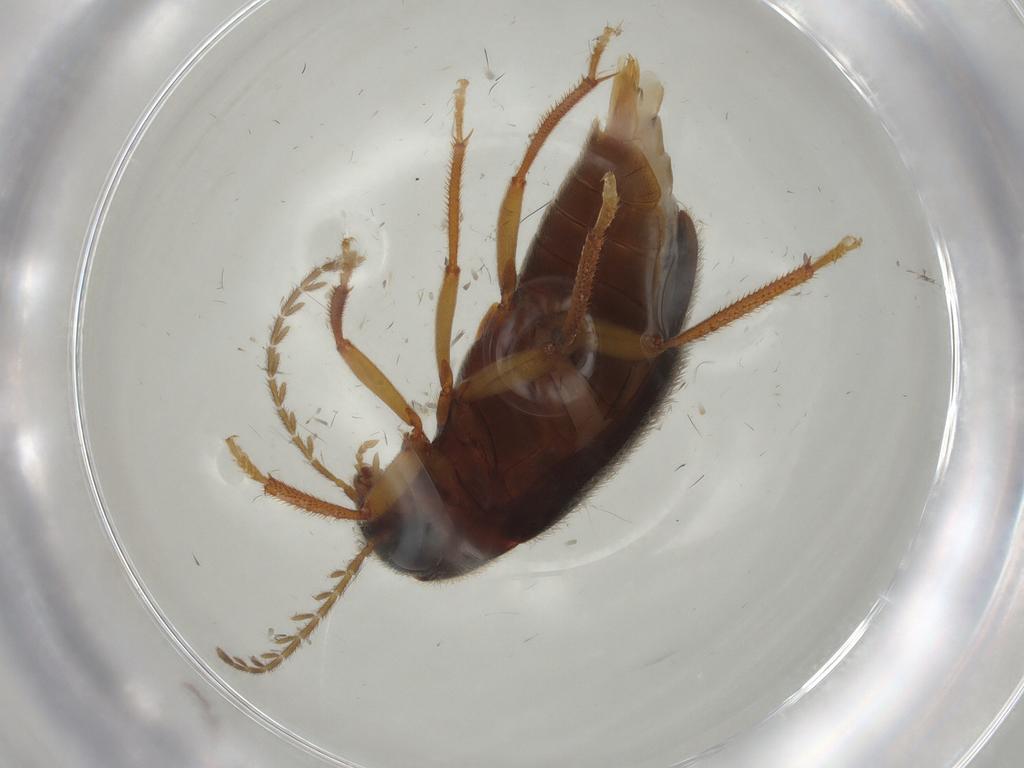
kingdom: Animalia
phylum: Arthropoda
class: Insecta
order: Coleoptera
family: Ptilodactylidae
